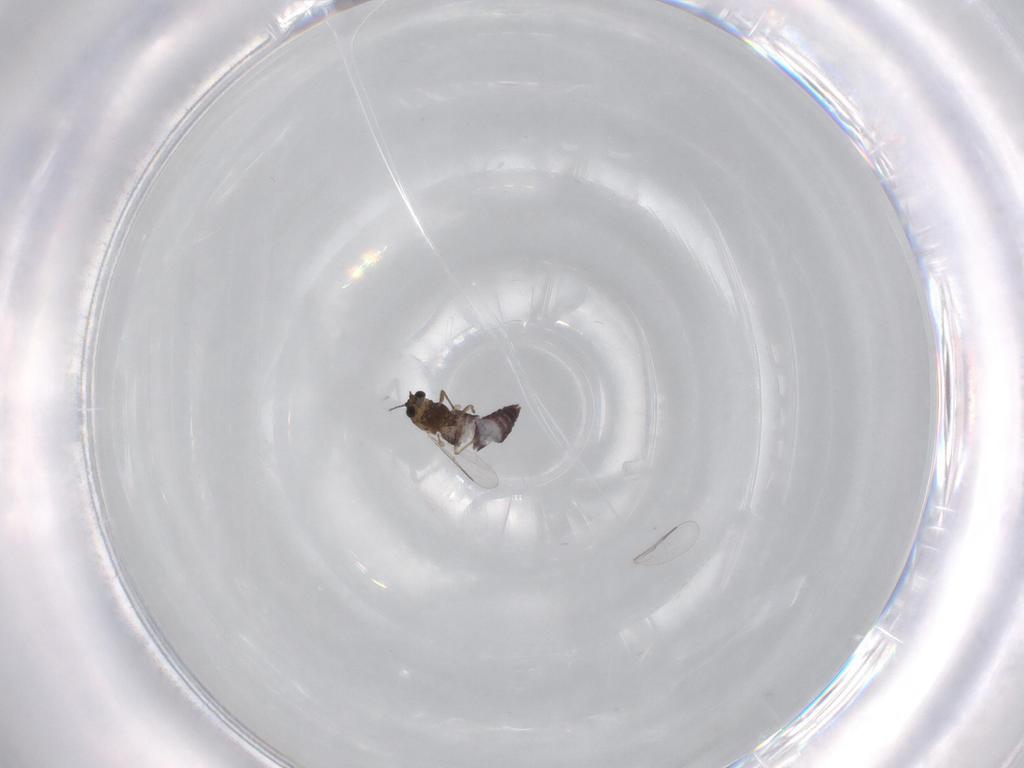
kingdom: Animalia
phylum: Arthropoda
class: Insecta
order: Diptera
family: Chironomidae
